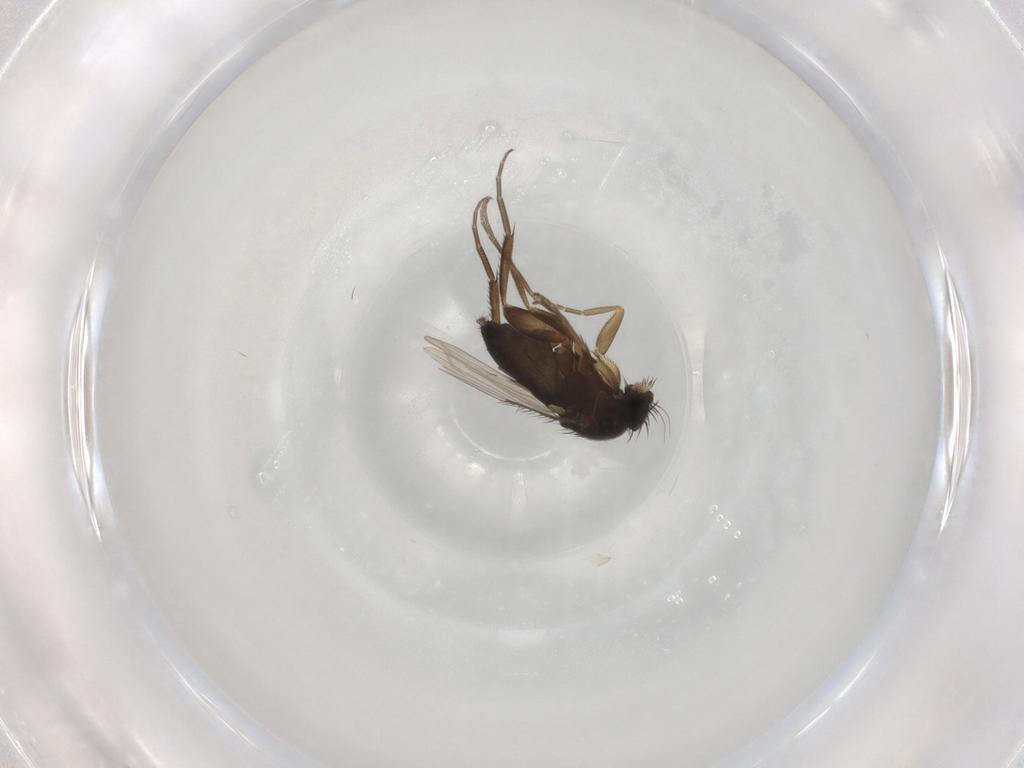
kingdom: Animalia
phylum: Arthropoda
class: Insecta
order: Diptera
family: Phoridae
